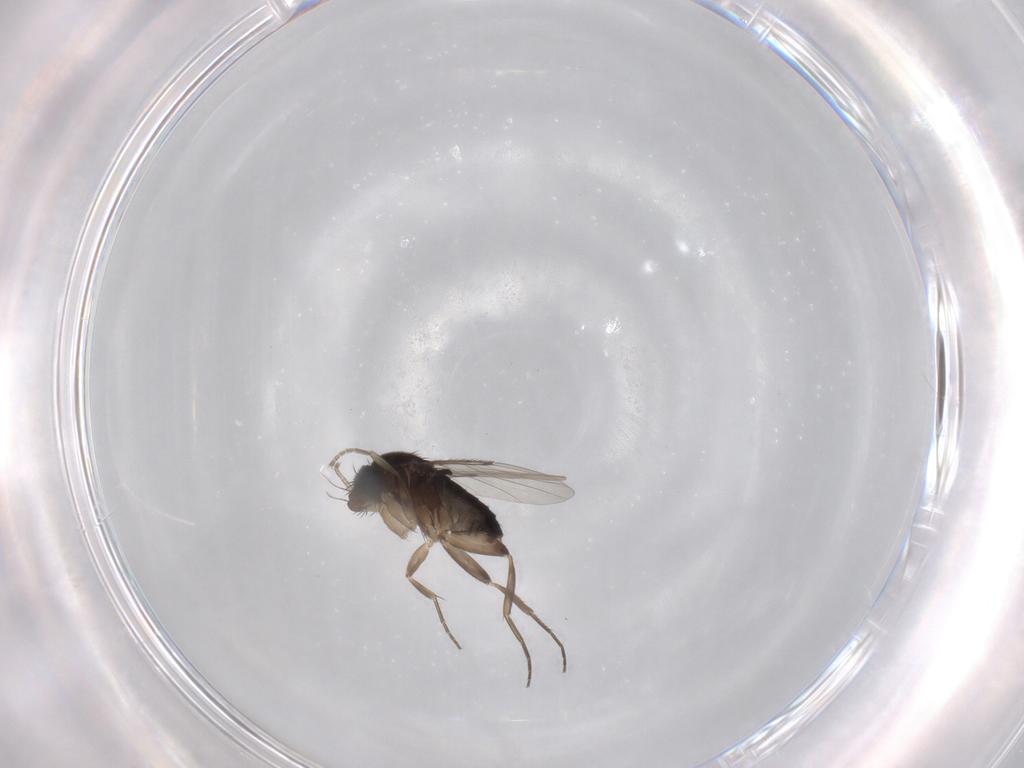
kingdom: Animalia
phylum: Arthropoda
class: Insecta
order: Diptera
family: Phoridae
